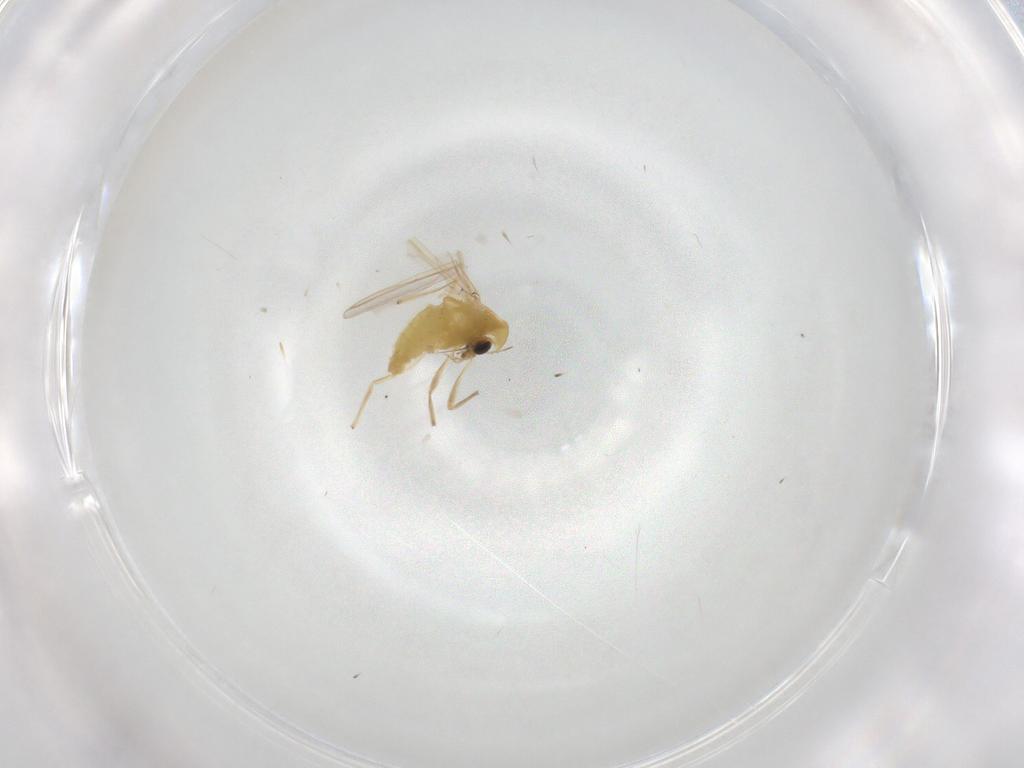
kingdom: Animalia
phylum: Arthropoda
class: Insecta
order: Diptera
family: Chironomidae
